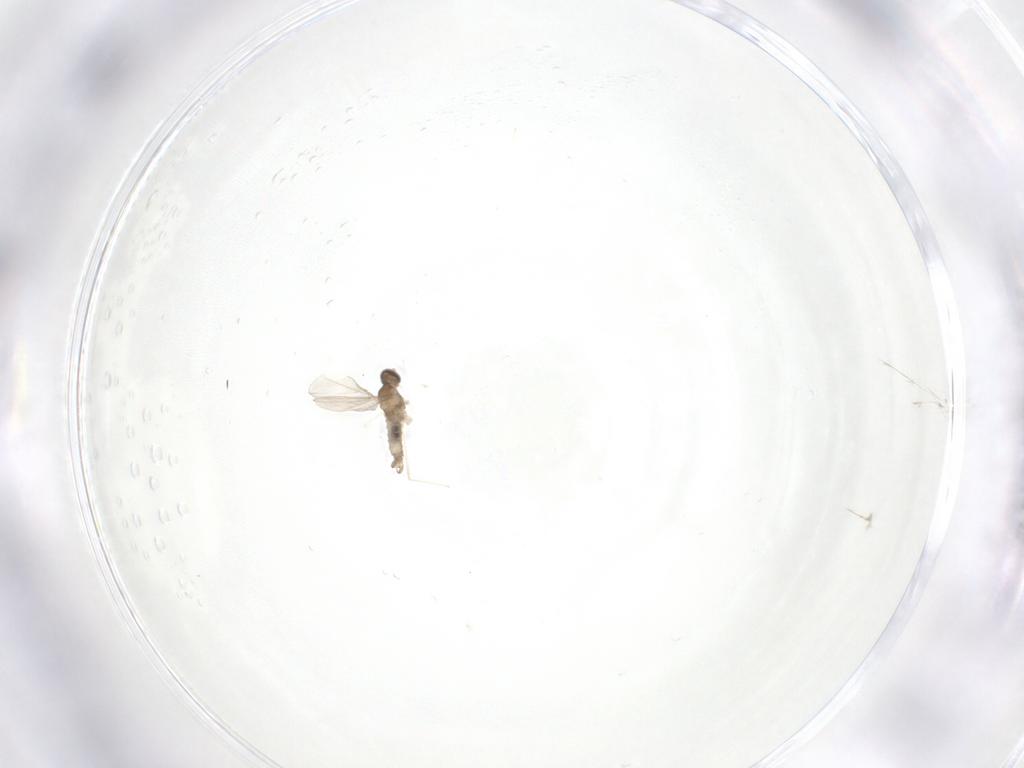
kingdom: Animalia
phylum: Arthropoda
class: Insecta
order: Diptera
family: Cecidomyiidae
